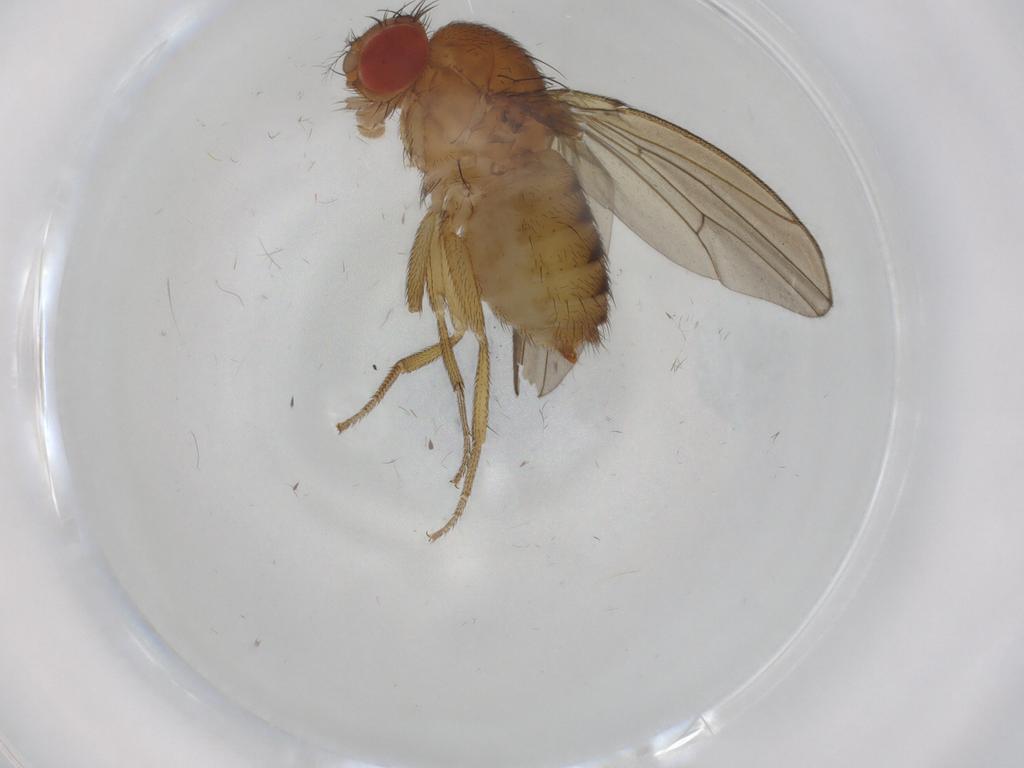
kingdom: Animalia
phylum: Arthropoda
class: Insecta
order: Diptera
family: Drosophilidae
